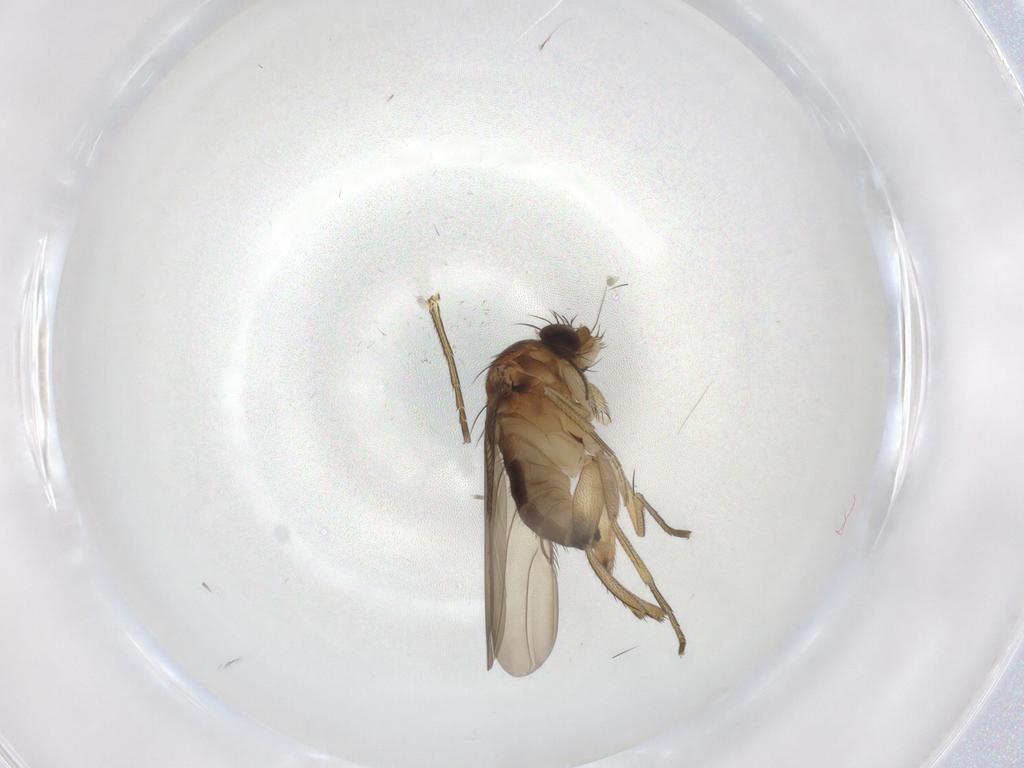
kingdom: Animalia
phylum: Arthropoda
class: Insecta
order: Diptera
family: Phoridae
